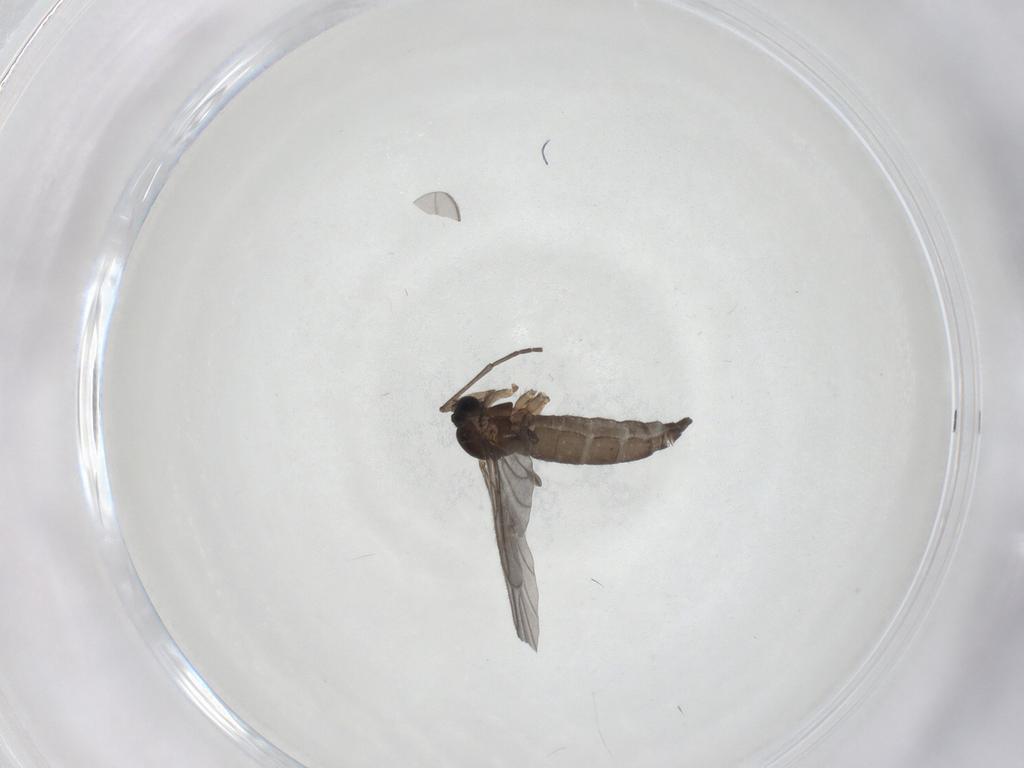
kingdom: Animalia
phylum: Arthropoda
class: Insecta
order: Diptera
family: Sciaridae
